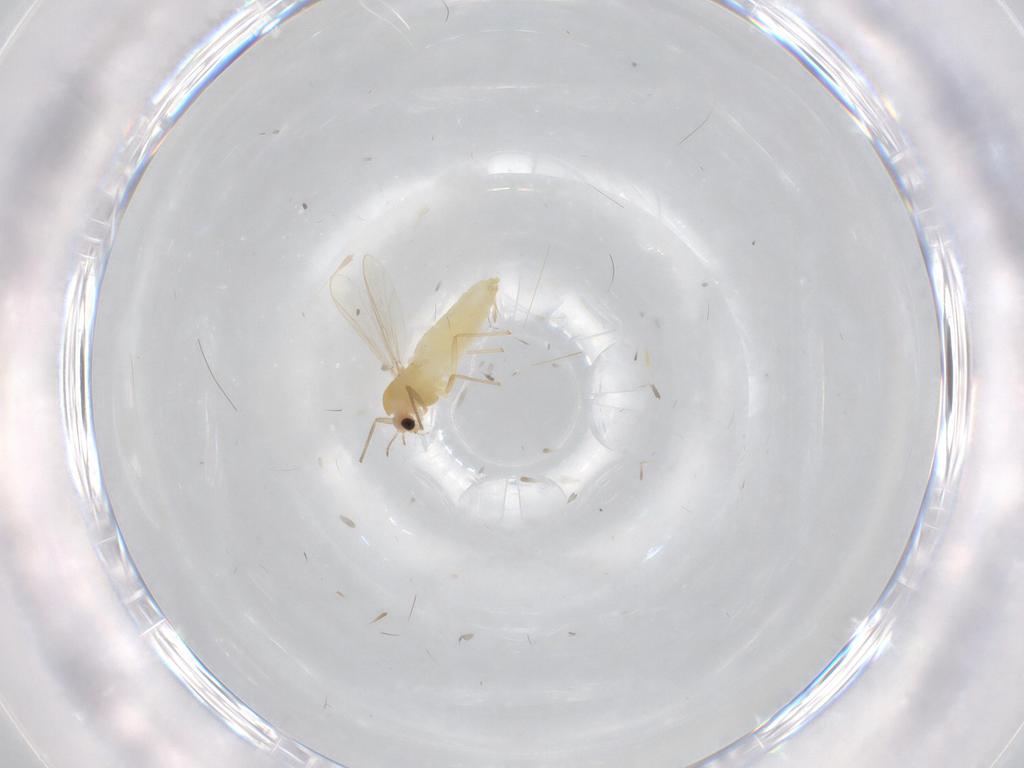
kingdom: Animalia
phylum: Arthropoda
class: Insecta
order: Diptera
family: Chironomidae
